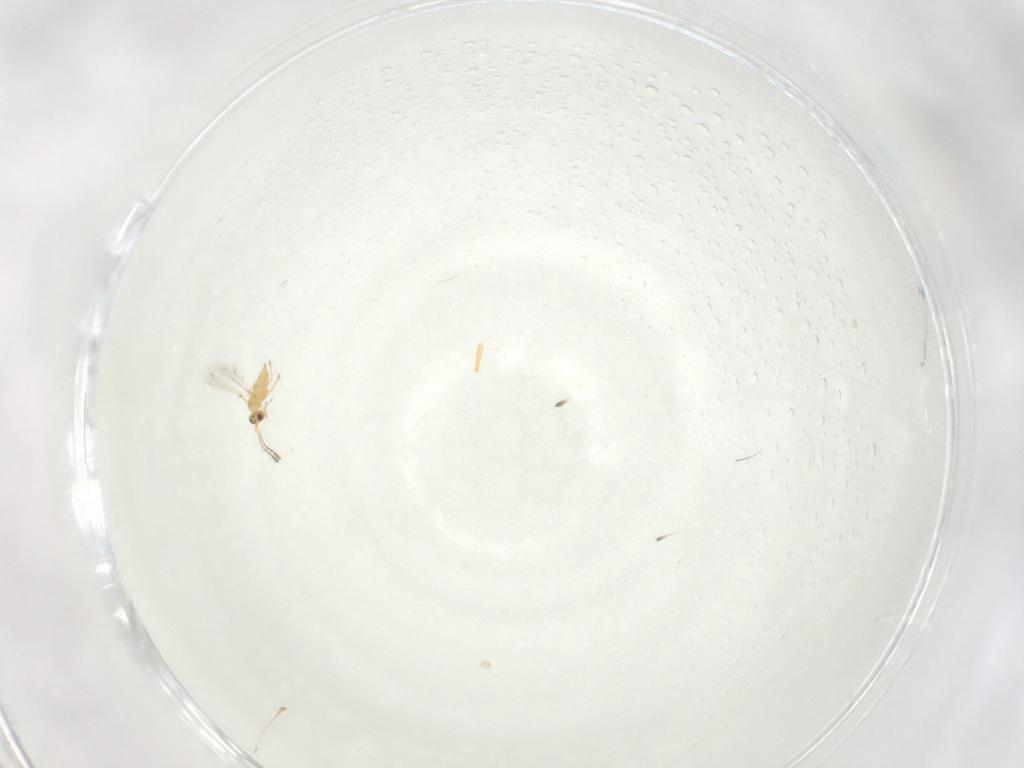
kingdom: Animalia
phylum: Arthropoda
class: Insecta
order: Hymenoptera
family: Mymaridae
